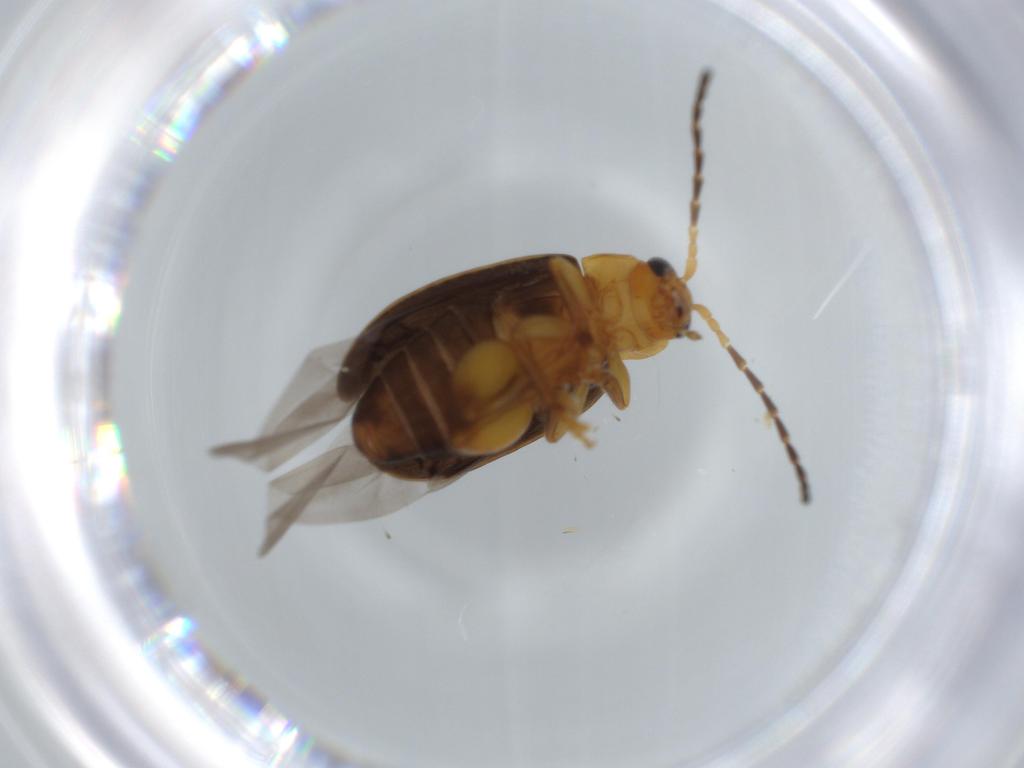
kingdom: Animalia
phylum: Arthropoda
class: Insecta
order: Coleoptera
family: Chrysomelidae
